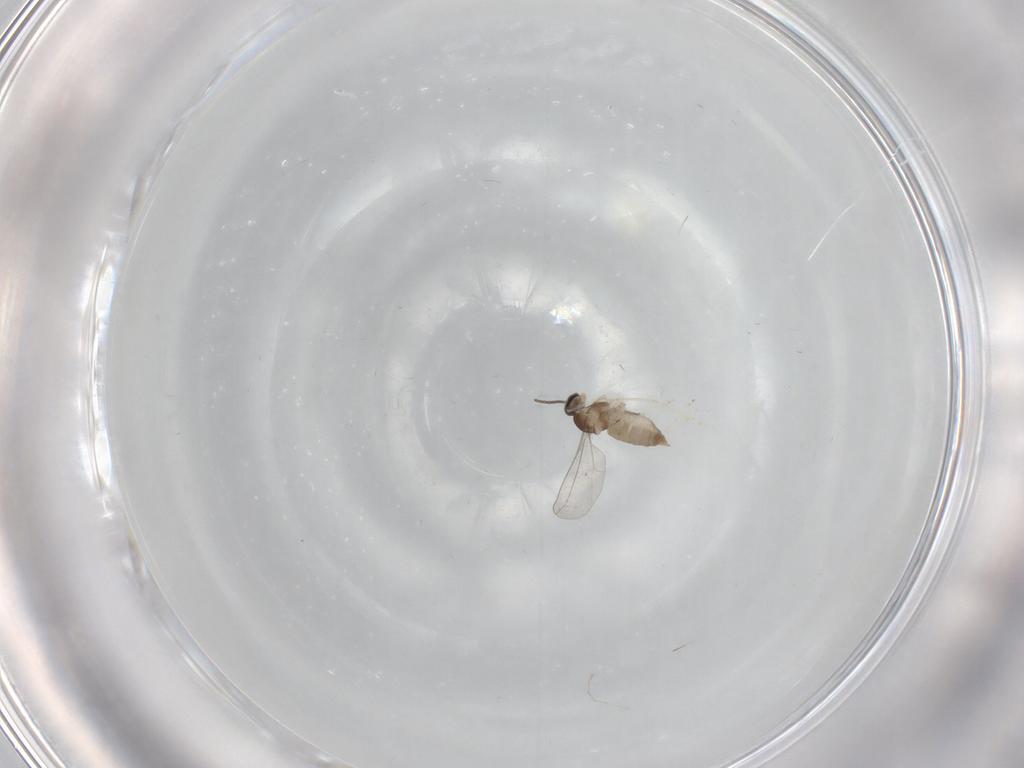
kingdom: Animalia
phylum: Arthropoda
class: Insecta
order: Diptera
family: Cecidomyiidae
